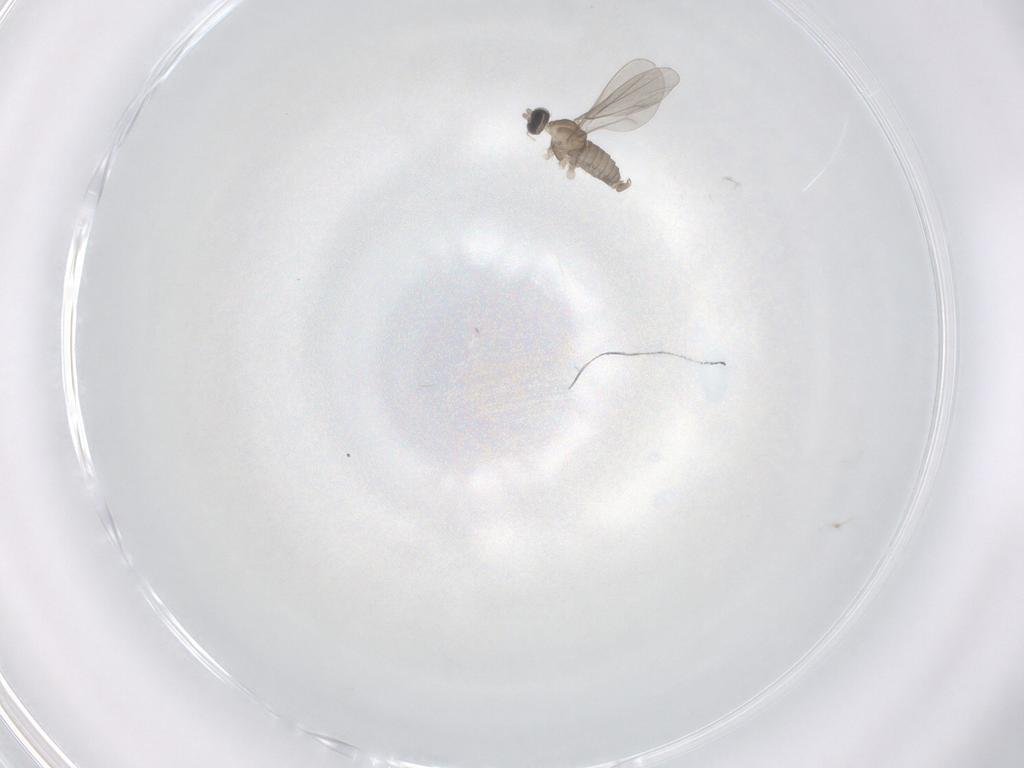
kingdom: Animalia
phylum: Arthropoda
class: Insecta
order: Diptera
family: Cecidomyiidae
